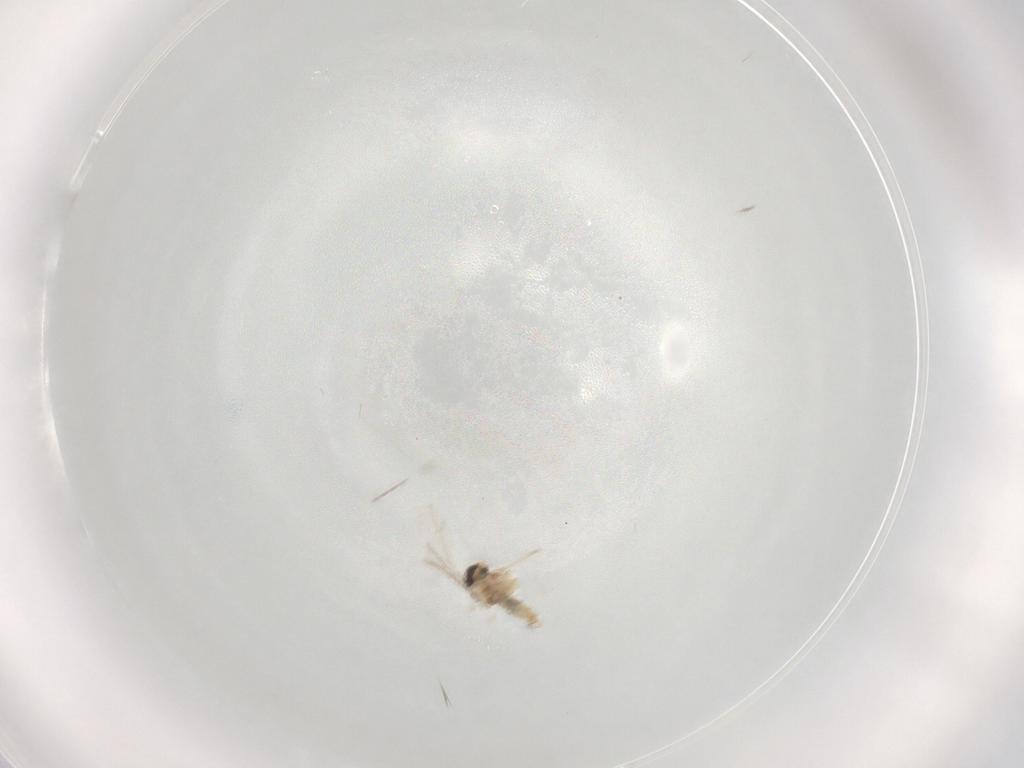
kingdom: Animalia
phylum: Arthropoda
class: Insecta
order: Diptera
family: Cecidomyiidae
